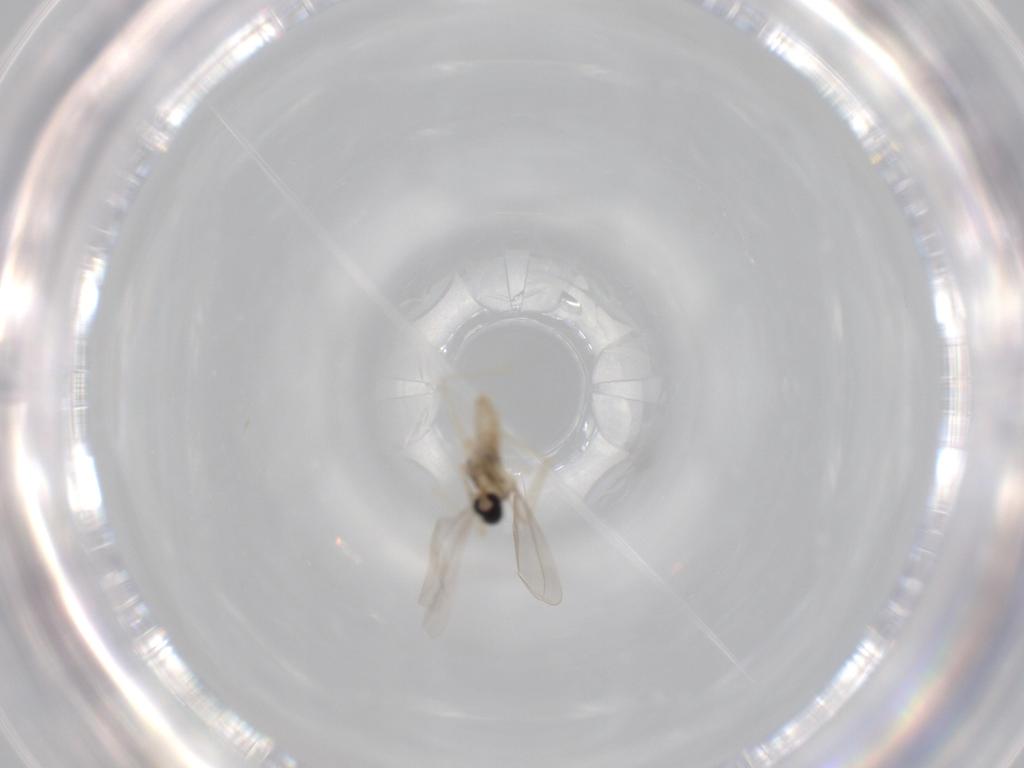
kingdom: Animalia
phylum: Arthropoda
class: Insecta
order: Diptera
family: Cecidomyiidae
